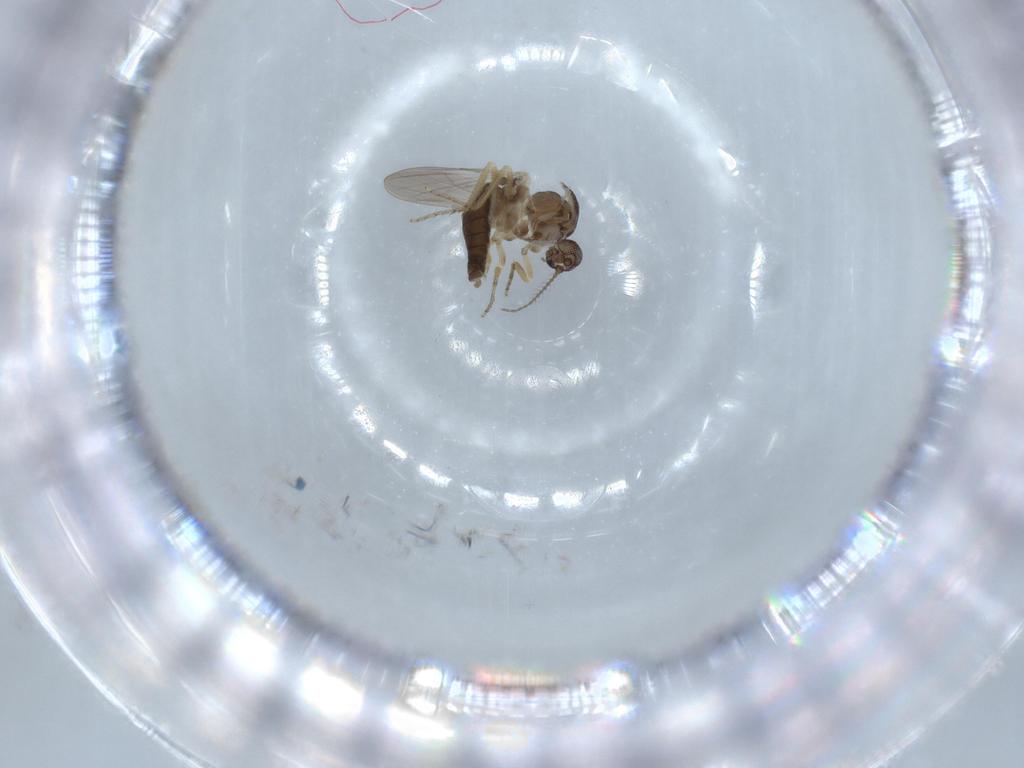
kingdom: Animalia
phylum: Arthropoda
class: Insecta
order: Diptera
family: Ceratopogonidae
